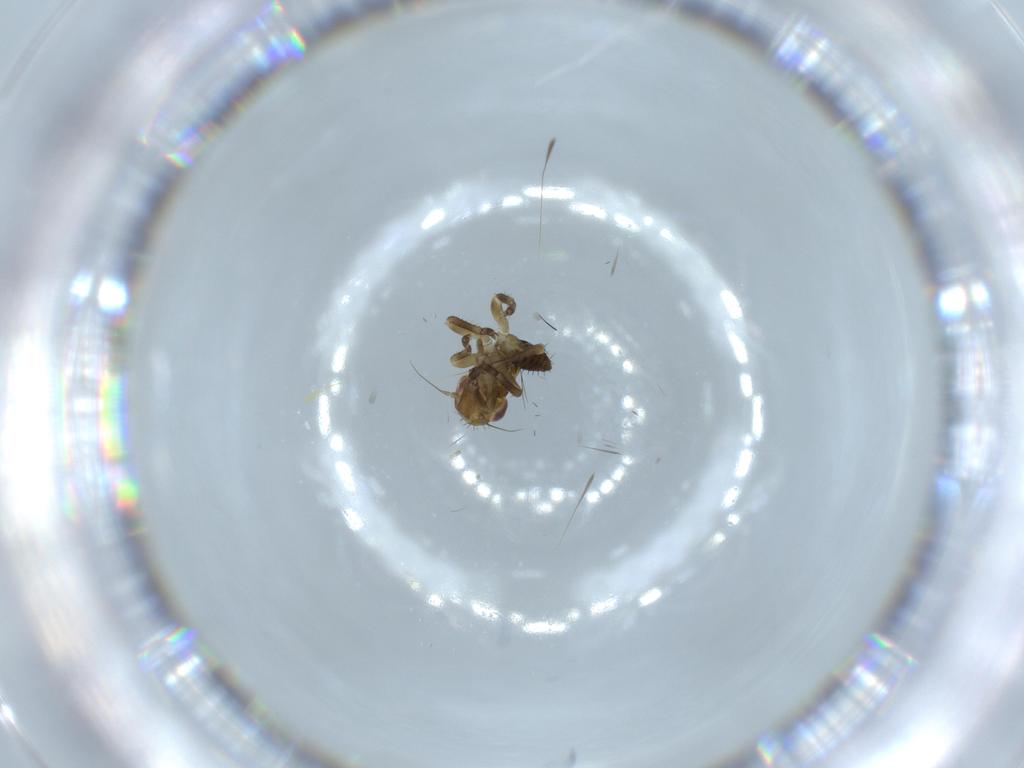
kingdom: Animalia
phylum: Arthropoda
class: Insecta
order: Hemiptera
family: Cicadellidae
